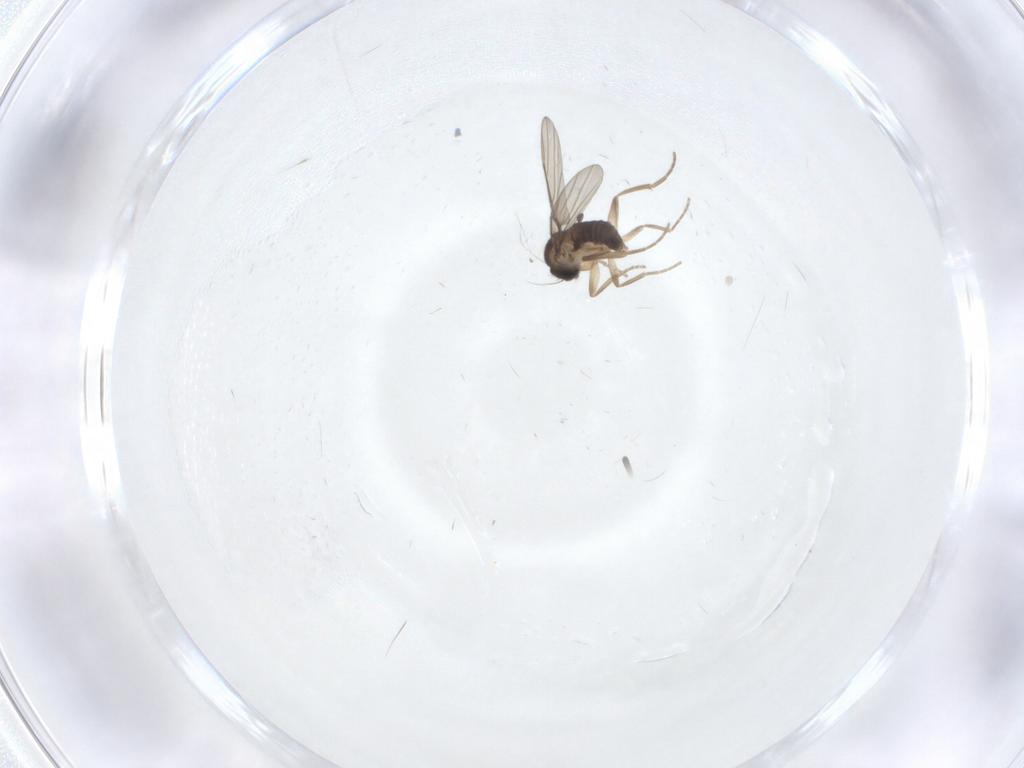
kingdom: Animalia
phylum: Arthropoda
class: Insecta
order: Diptera
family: Phoridae
